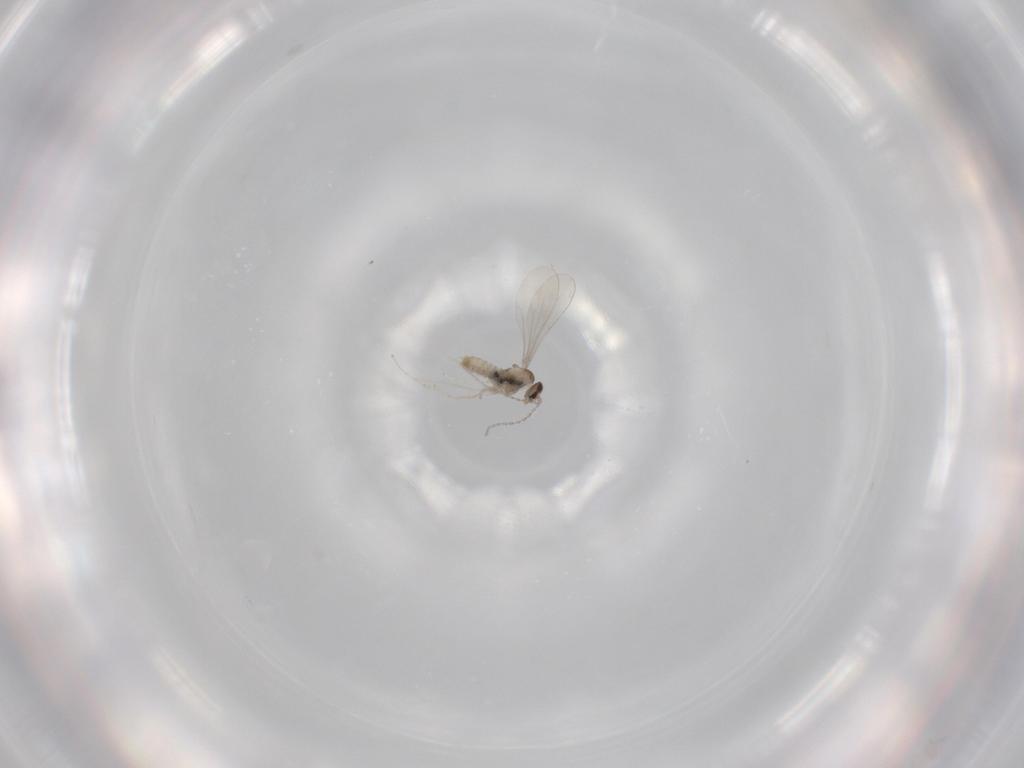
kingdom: Animalia
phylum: Arthropoda
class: Insecta
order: Diptera
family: Cecidomyiidae
